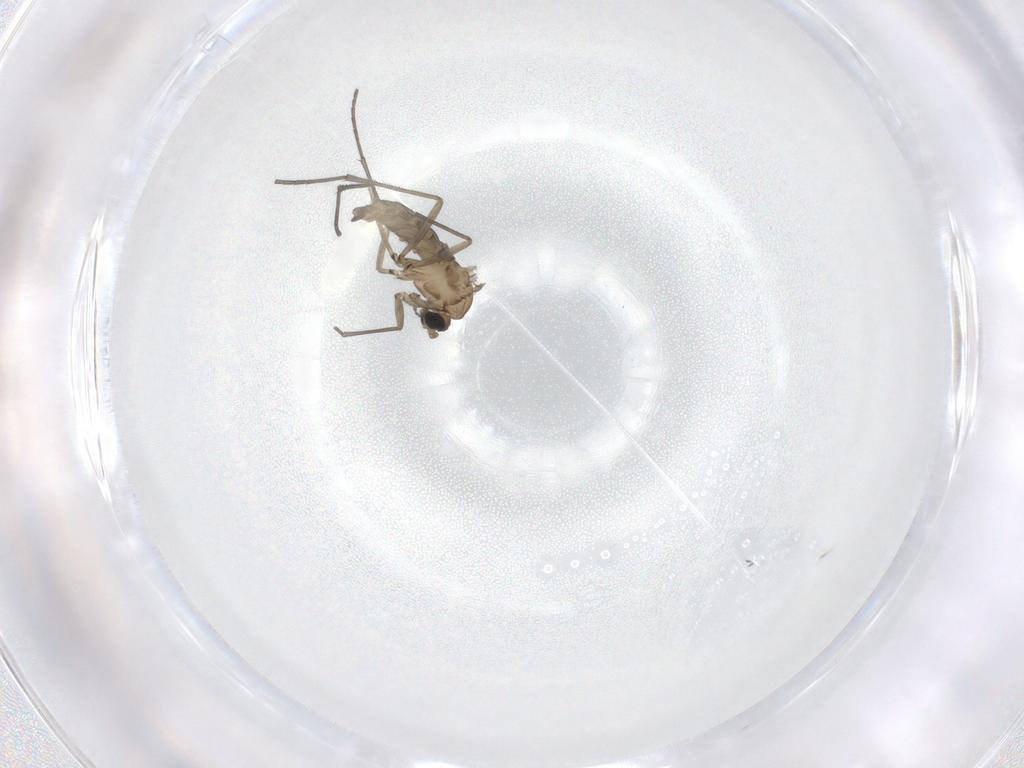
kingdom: Animalia
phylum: Arthropoda
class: Insecta
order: Diptera
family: Sciaridae
